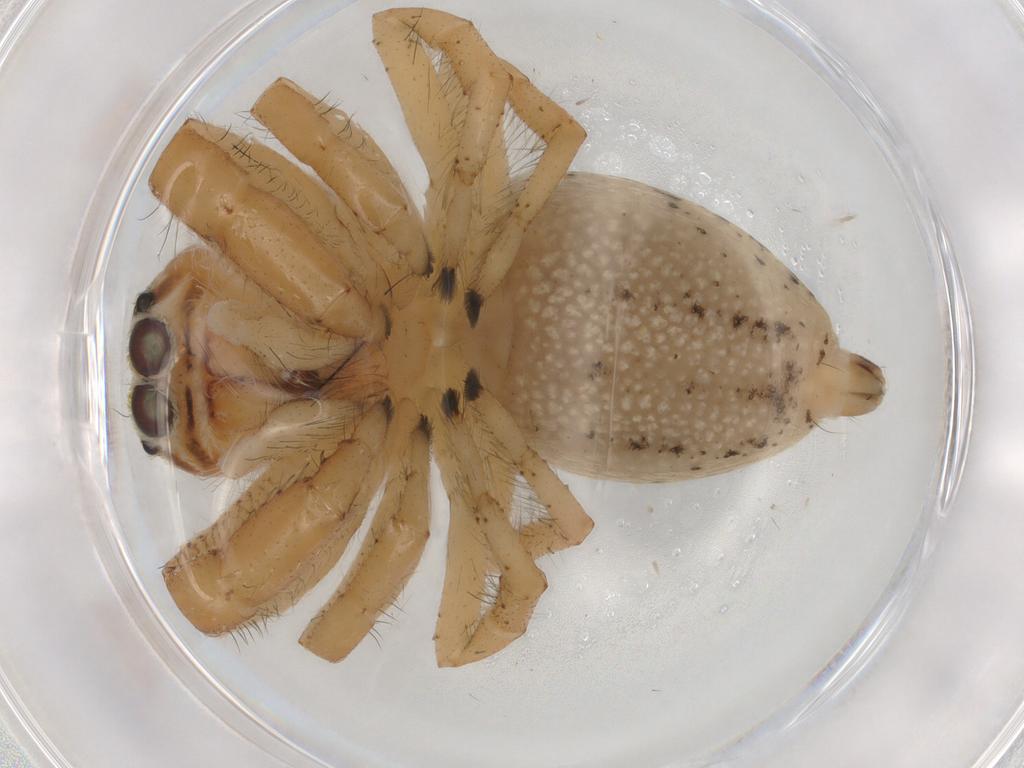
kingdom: Animalia
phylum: Arthropoda
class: Arachnida
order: Araneae
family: Salticidae
